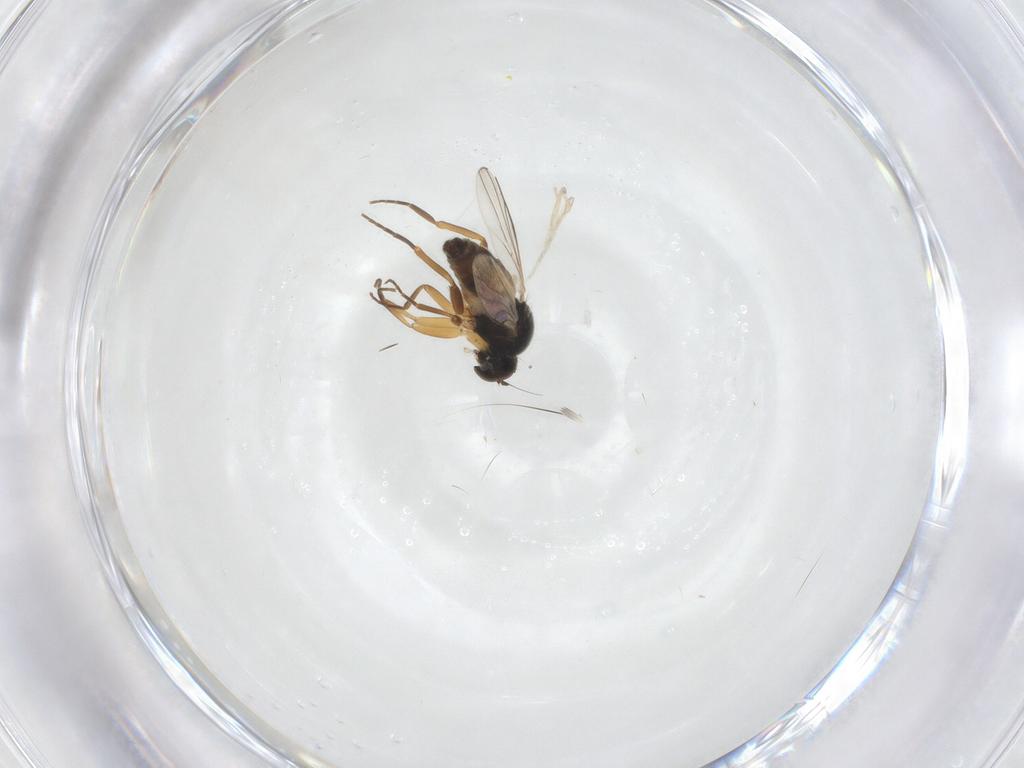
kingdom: Animalia
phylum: Arthropoda
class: Insecta
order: Diptera
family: Hybotidae
